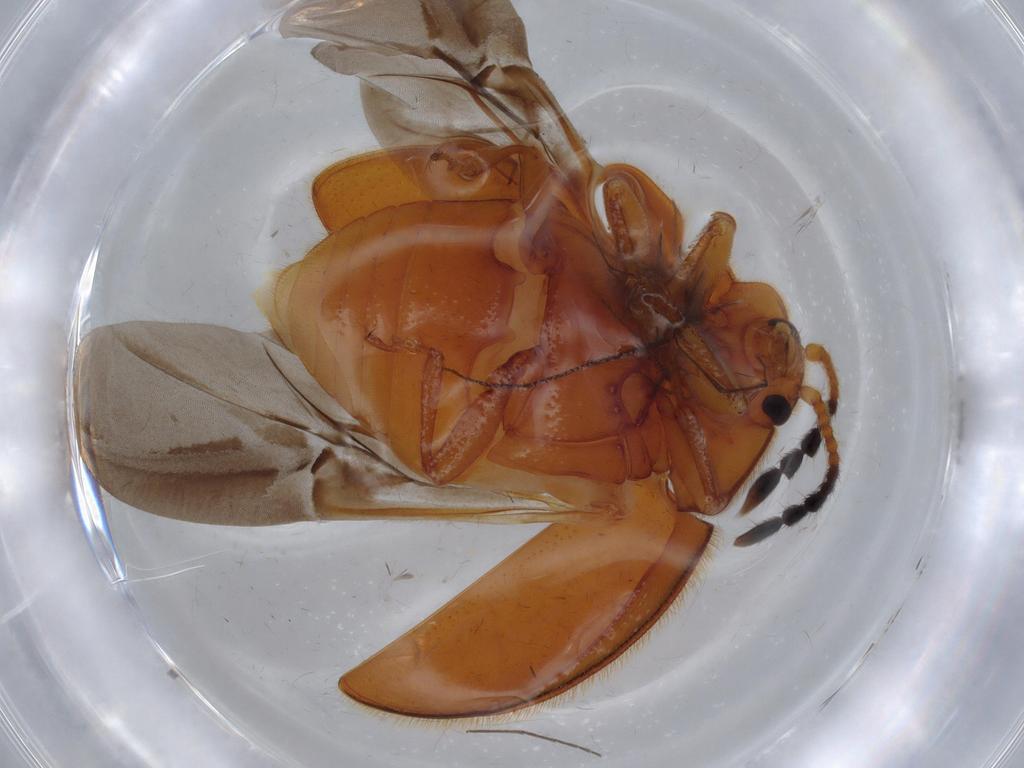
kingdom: Animalia
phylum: Arthropoda
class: Insecta
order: Coleoptera
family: Endomychidae
